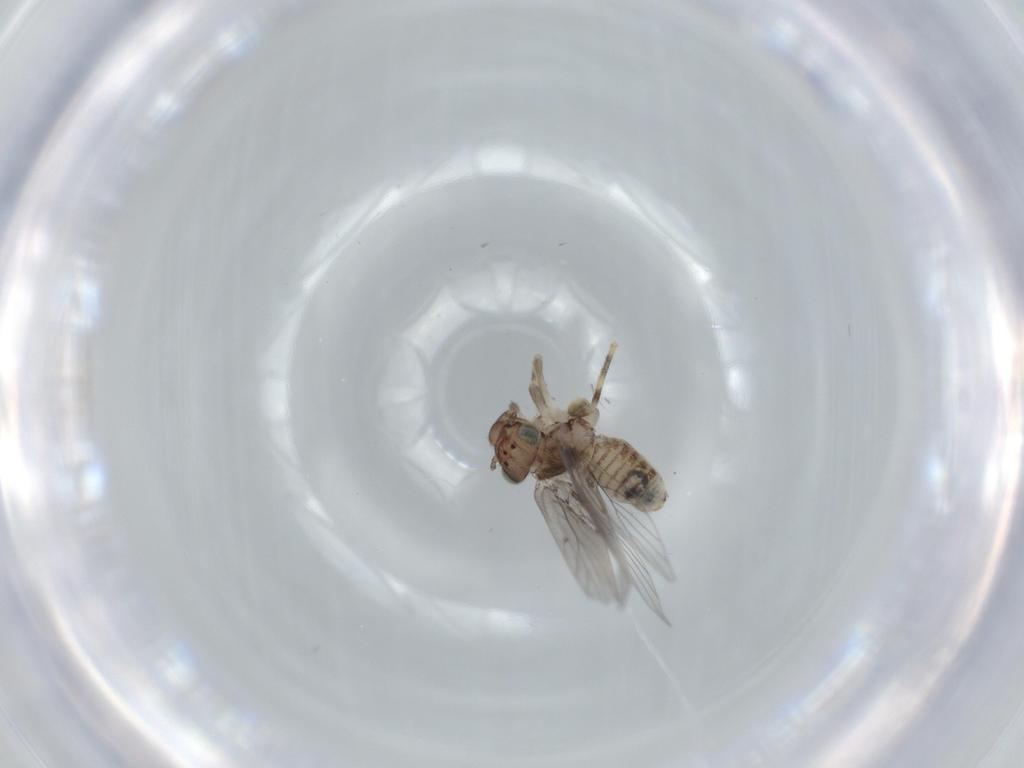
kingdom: Animalia
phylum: Arthropoda
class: Insecta
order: Psocodea
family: Lepidopsocidae
